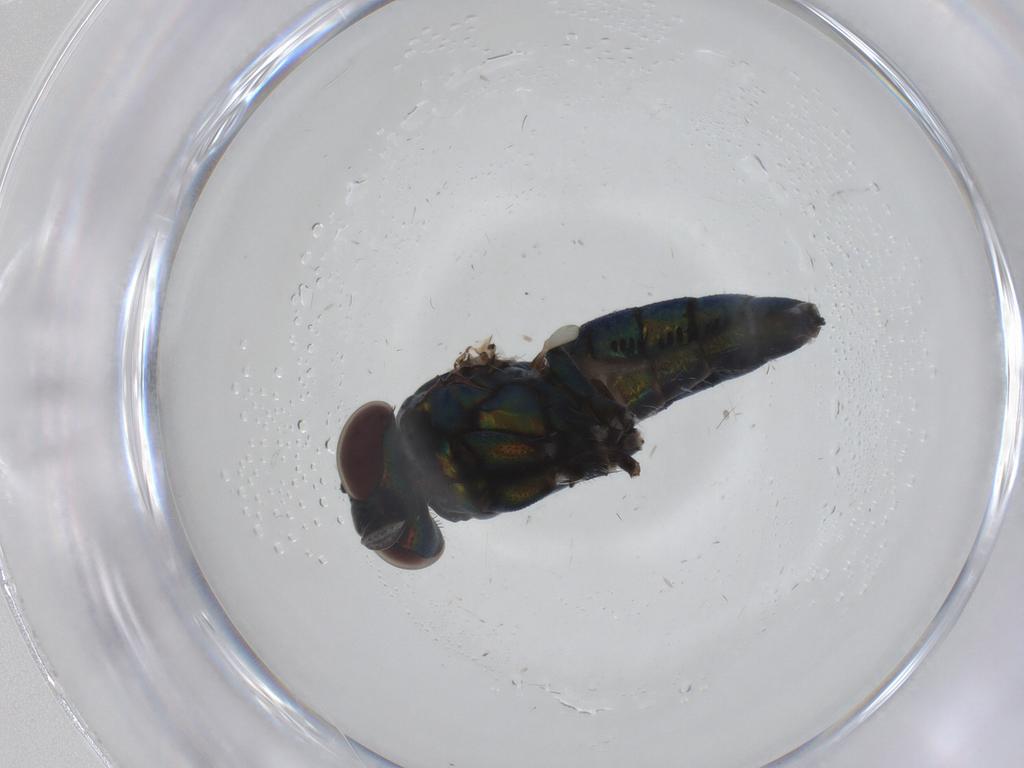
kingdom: Animalia
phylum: Arthropoda
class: Insecta
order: Diptera
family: Dolichopodidae
